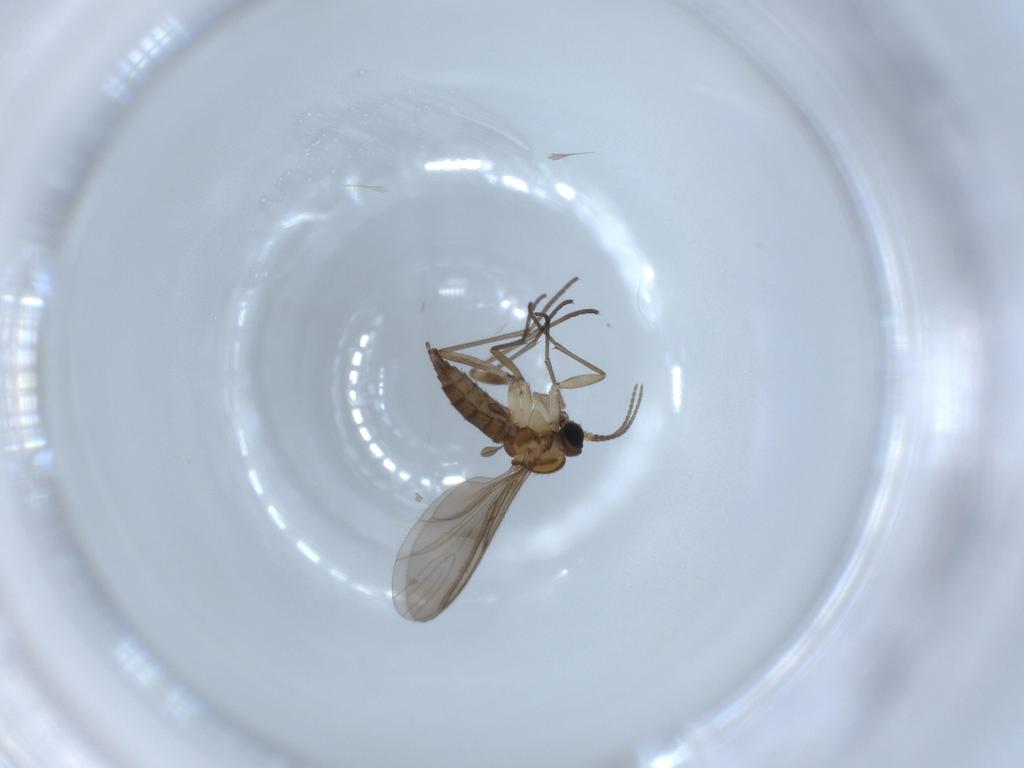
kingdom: Animalia
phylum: Arthropoda
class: Insecta
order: Diptera
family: Sciaridae
